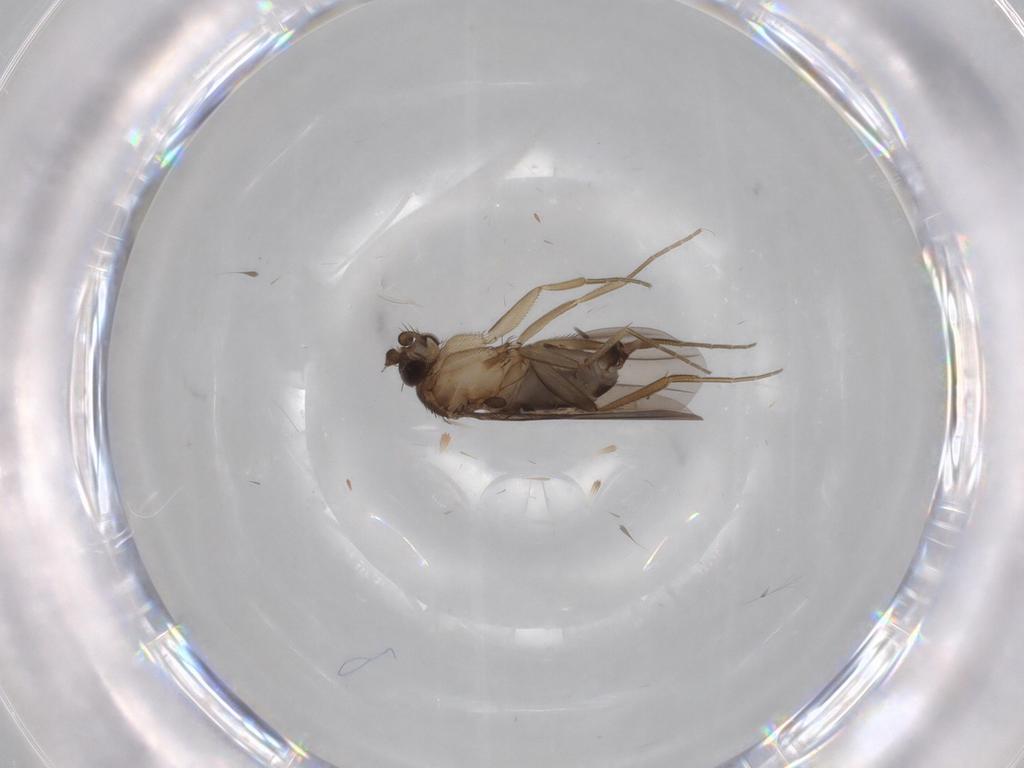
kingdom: Animalia
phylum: Arthropoda
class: Insecta
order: Diptera
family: Phoridae
